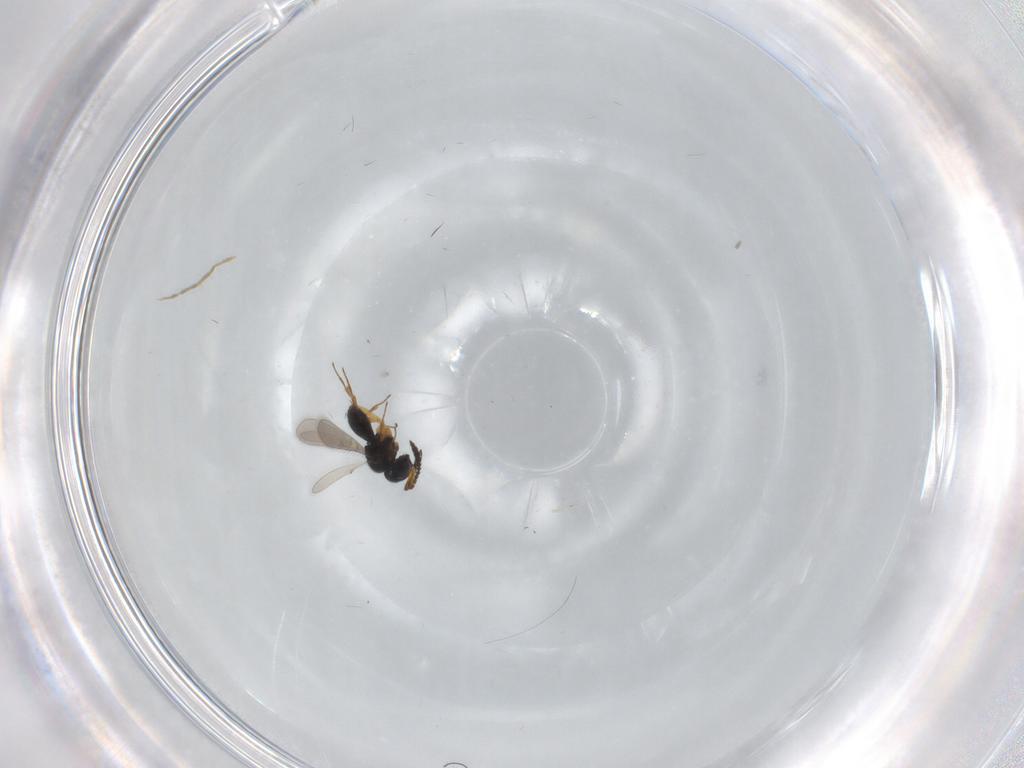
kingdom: Animalia
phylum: Arthropoda
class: Insecta
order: Hymenoptera
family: Scelionidae
